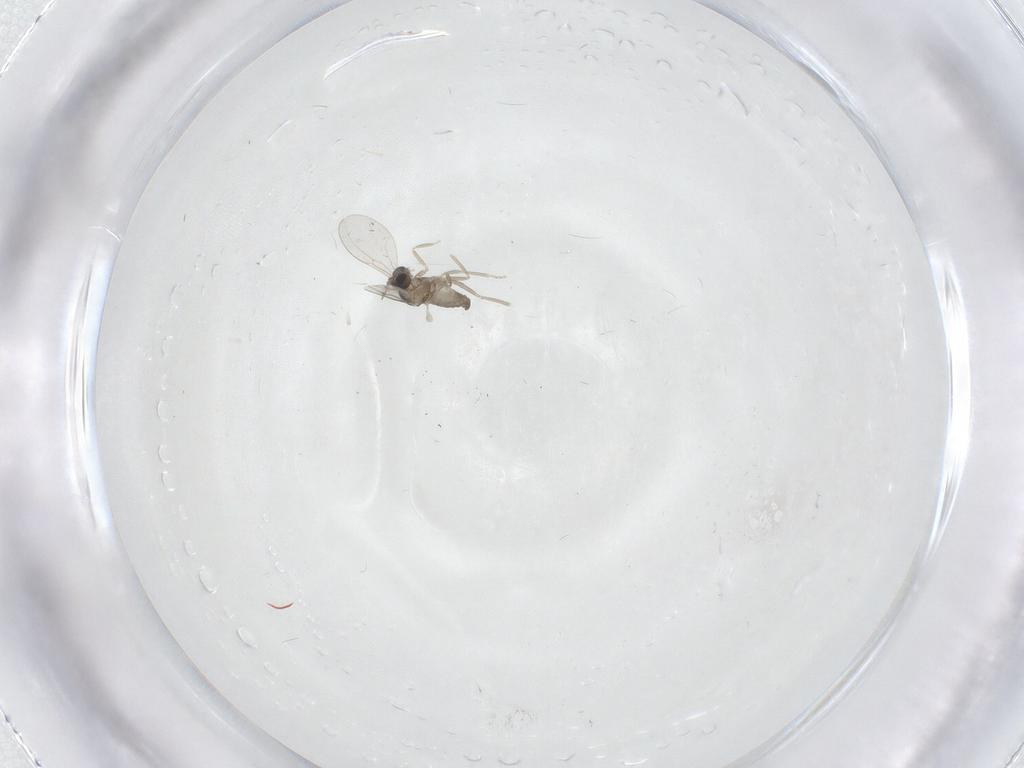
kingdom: Animalia
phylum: Arthropoda
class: Insecta
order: Diptera
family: Cecidomyiidae
